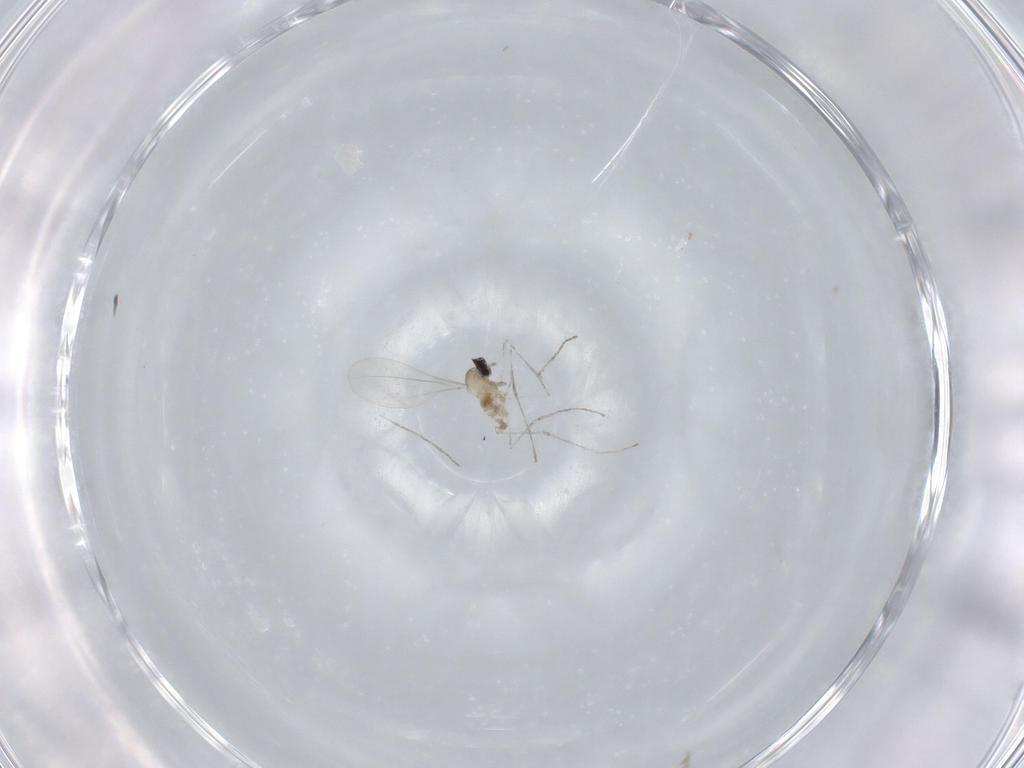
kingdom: Animalia
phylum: Arthropoda
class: Insecta
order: Diptera
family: Cecidomyiidae
